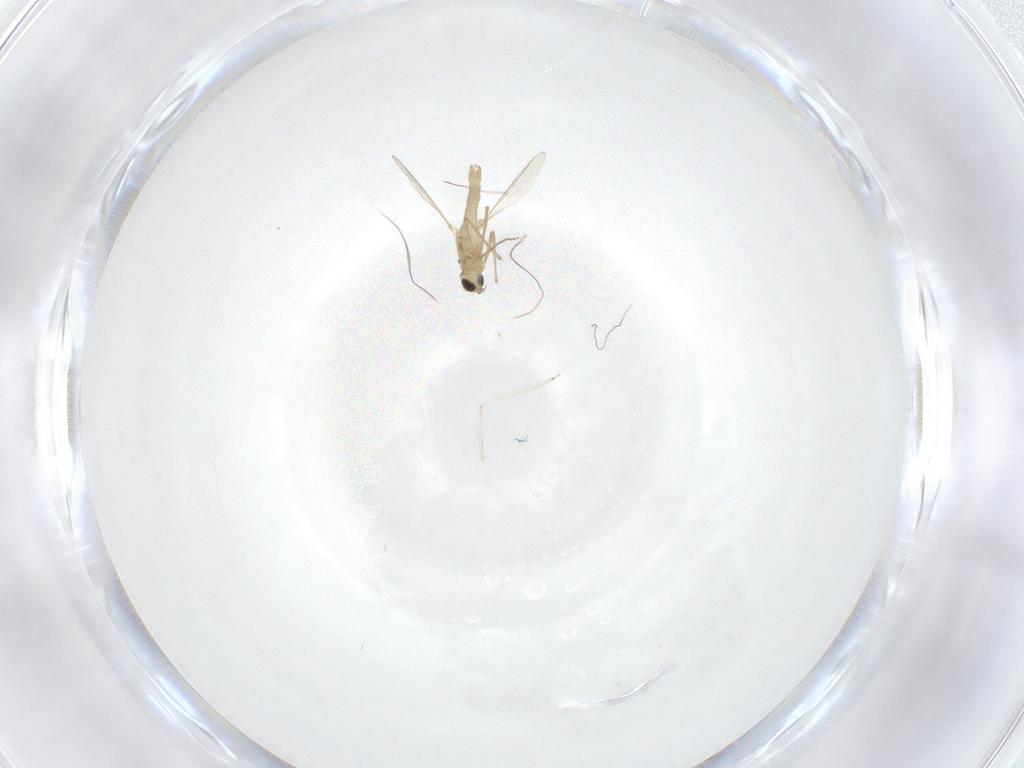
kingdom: Animalia
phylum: Arthropoda
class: Insecta
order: Diptera
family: Chironomidae
